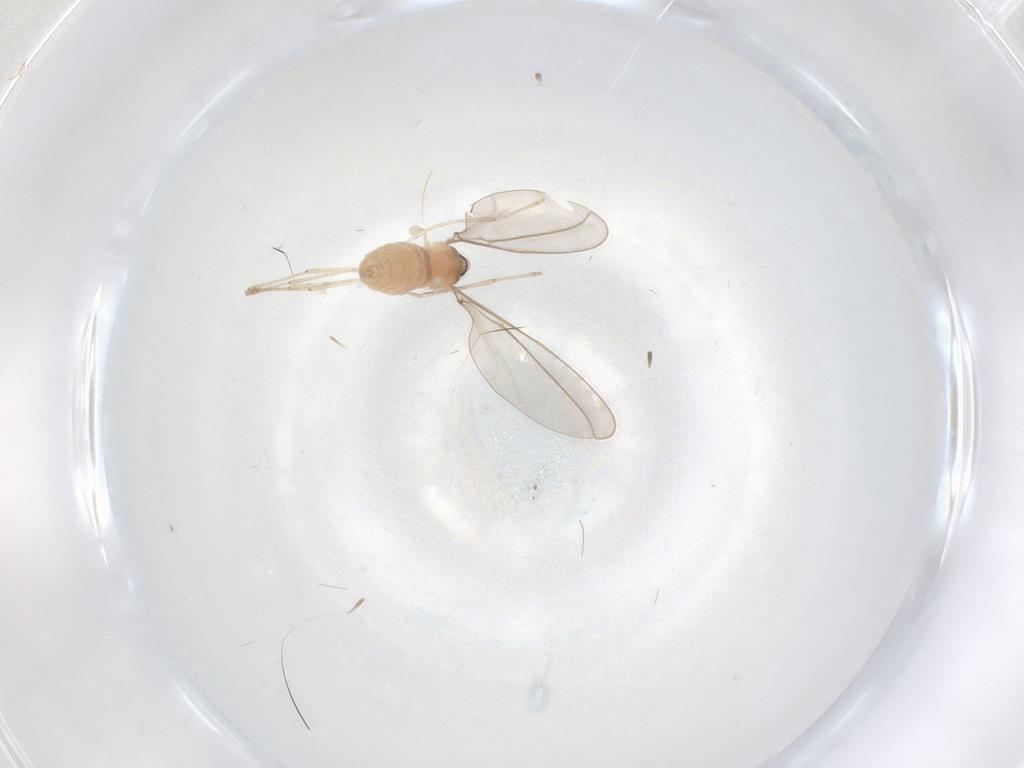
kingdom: Animalia
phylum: Arthropoda
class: Insecta
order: Diptera
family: Cecidomyiidae
